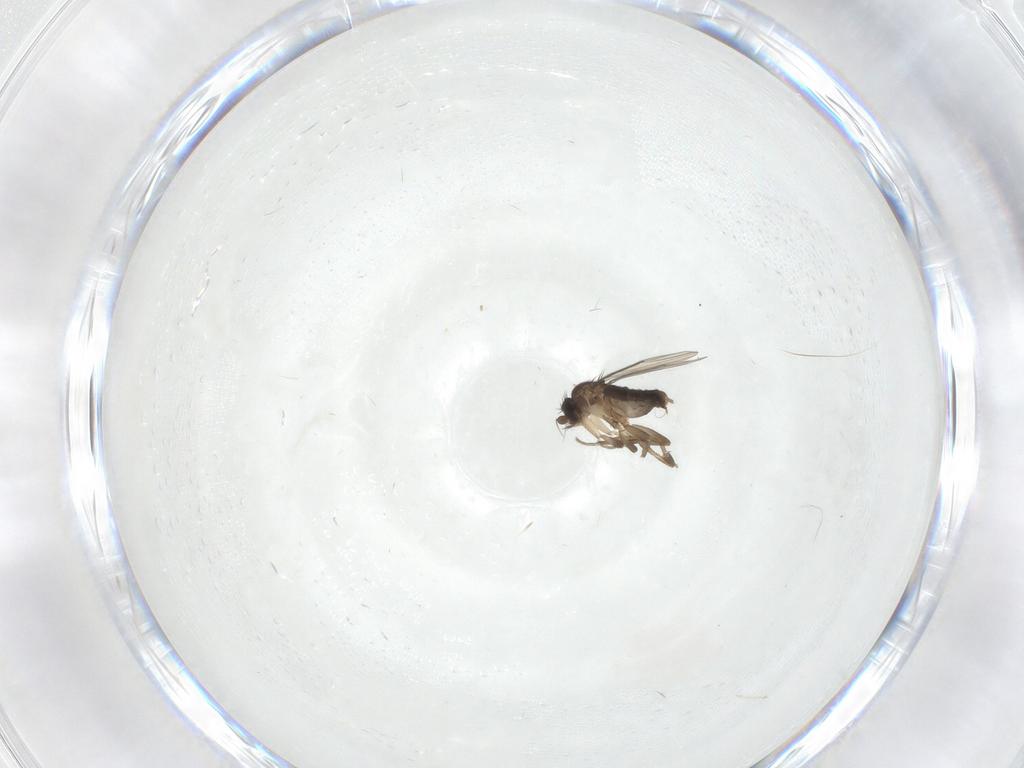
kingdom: Animalia
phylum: Arthropoda
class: Insecta
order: Diptera
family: Phoridae
